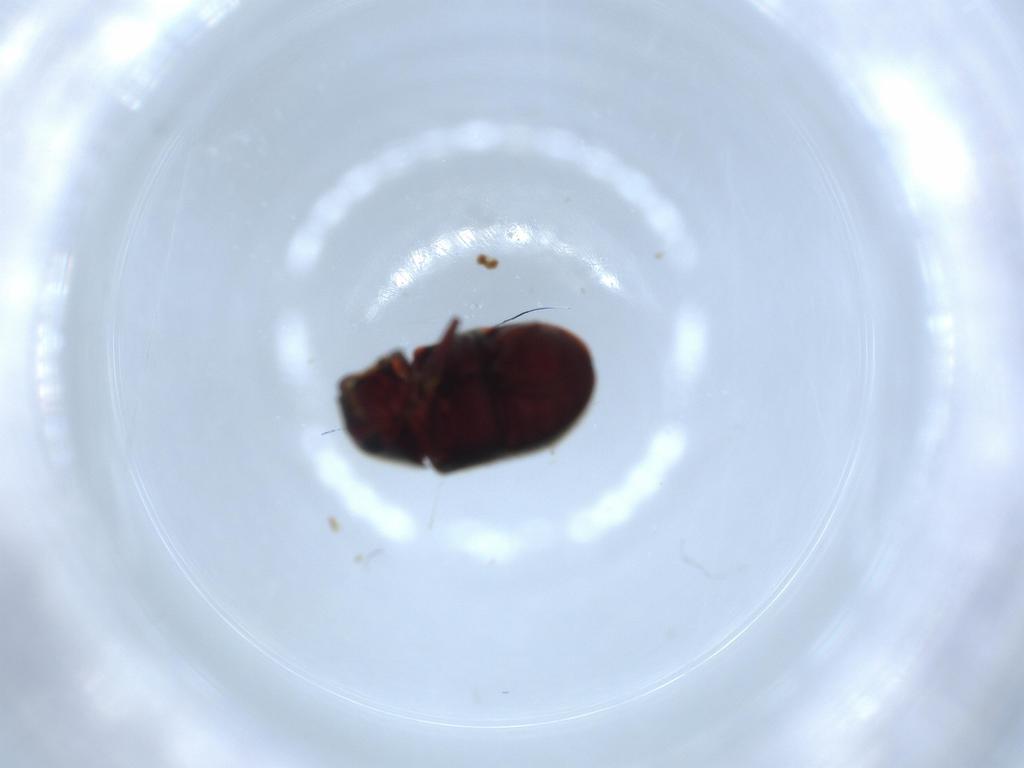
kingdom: Animalia
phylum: Arthropoda
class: Insecta
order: Coleoptera
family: Ptinidae
